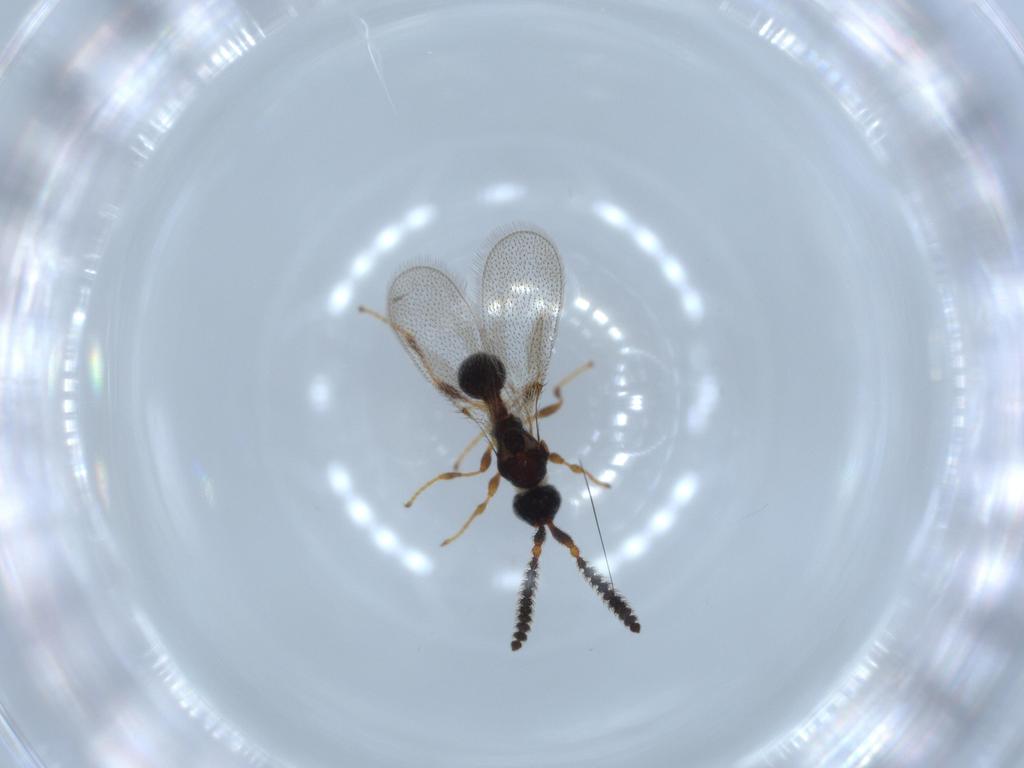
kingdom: Animalia
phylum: Arthropoda
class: Insecta
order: Hymenoptera
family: Diapriidae
